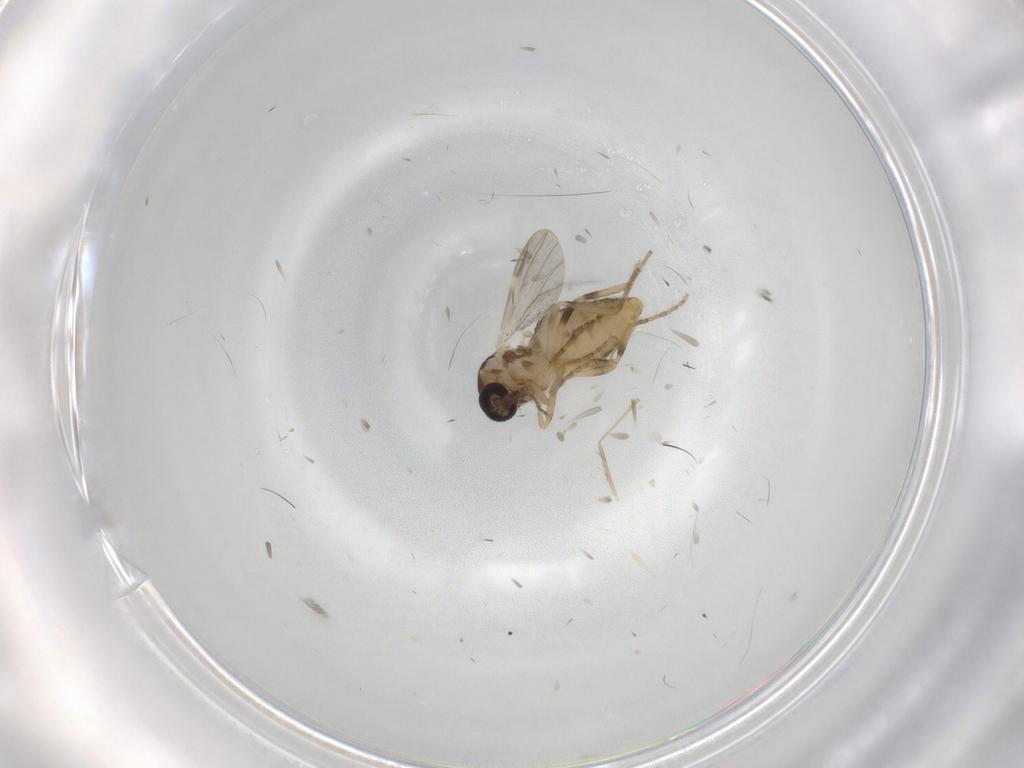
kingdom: Animalia
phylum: Arthropoda
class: Insecta
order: Diptera
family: Ceratopogonidae
